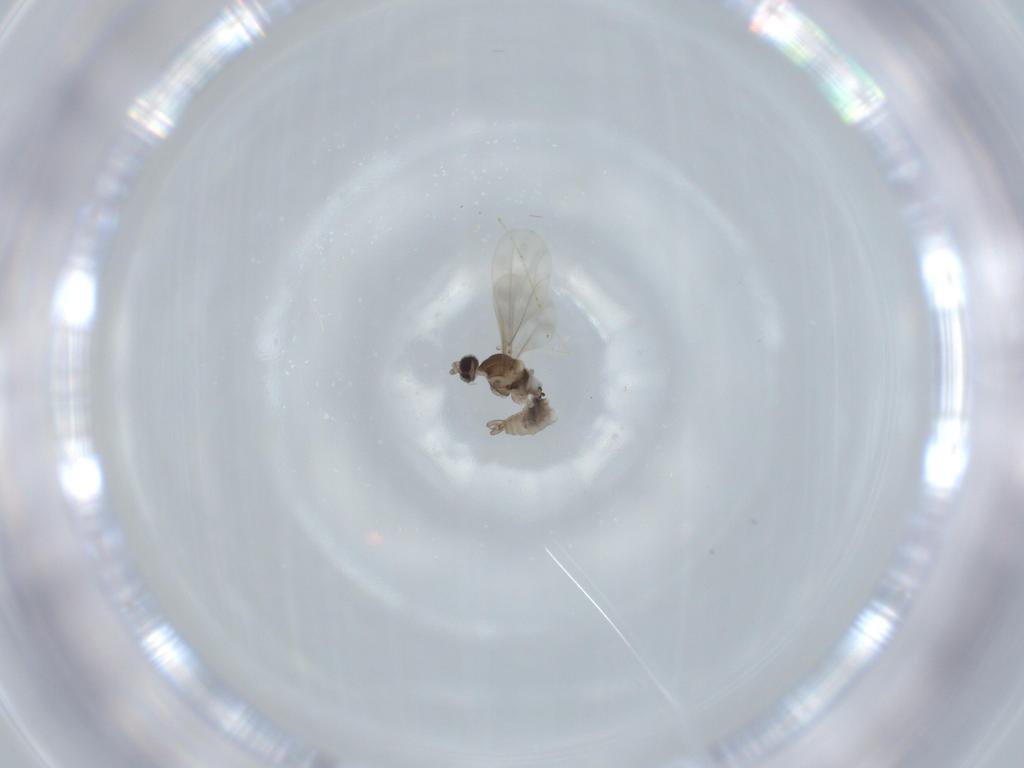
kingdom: Animalia
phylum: Arthropoda
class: Insecta
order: Diptera
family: Cecidomyiidae
